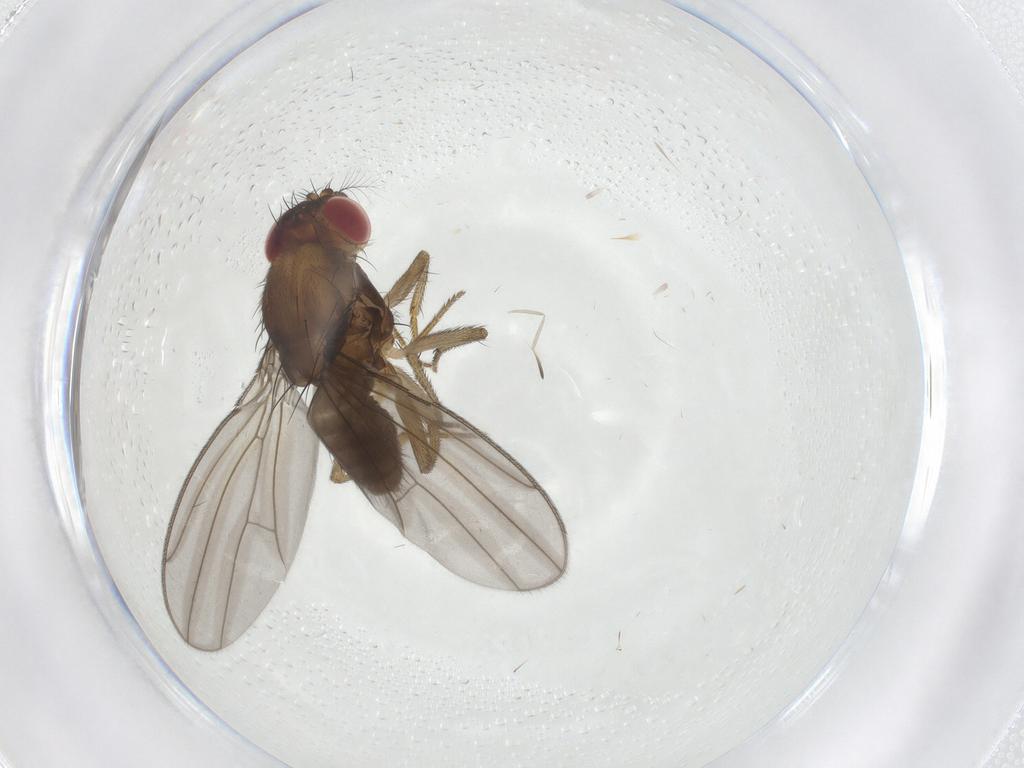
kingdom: Animalia
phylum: Arthropoda
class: Insecta
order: Diptera
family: Drosophilidae
